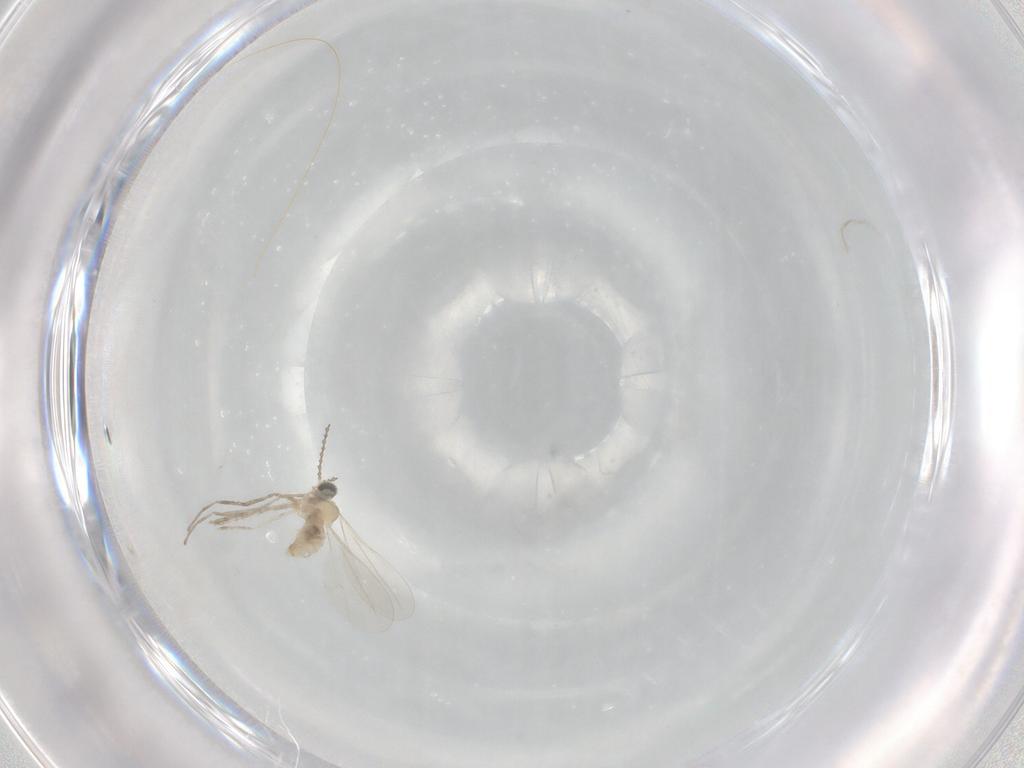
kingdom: Animalia
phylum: Arthropoda
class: Insecta
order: Diptera
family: Cecidomyiidae
